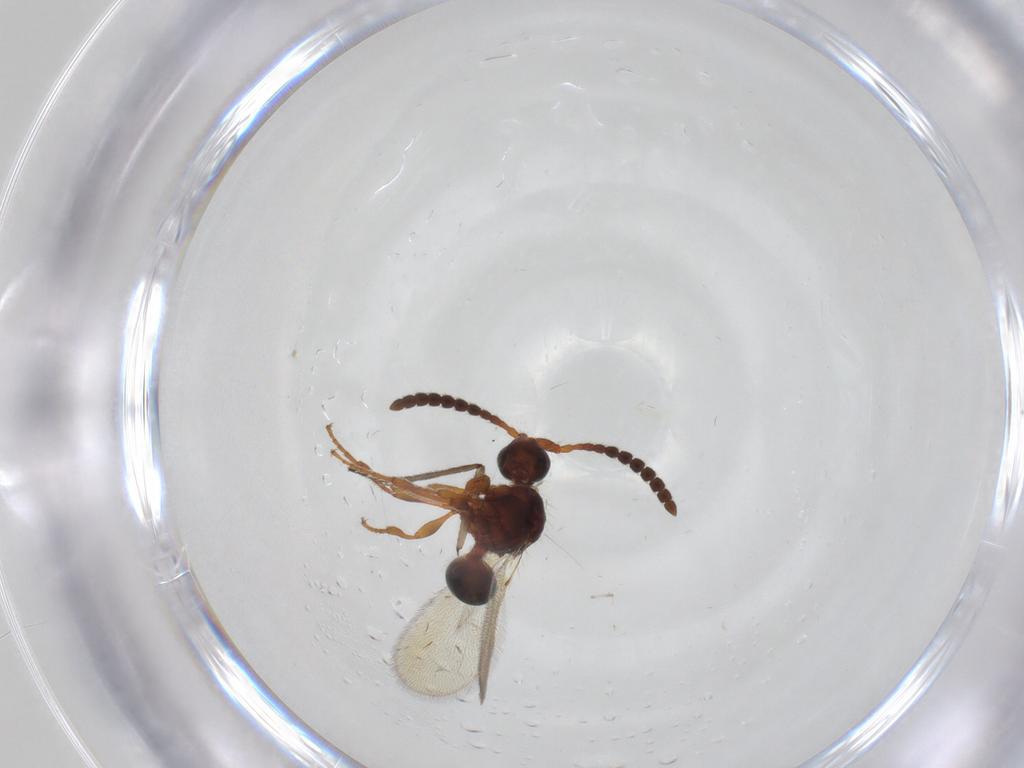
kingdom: Animalia
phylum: Arthropoda
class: Insecta
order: Hymenoptera
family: Diapriidae
